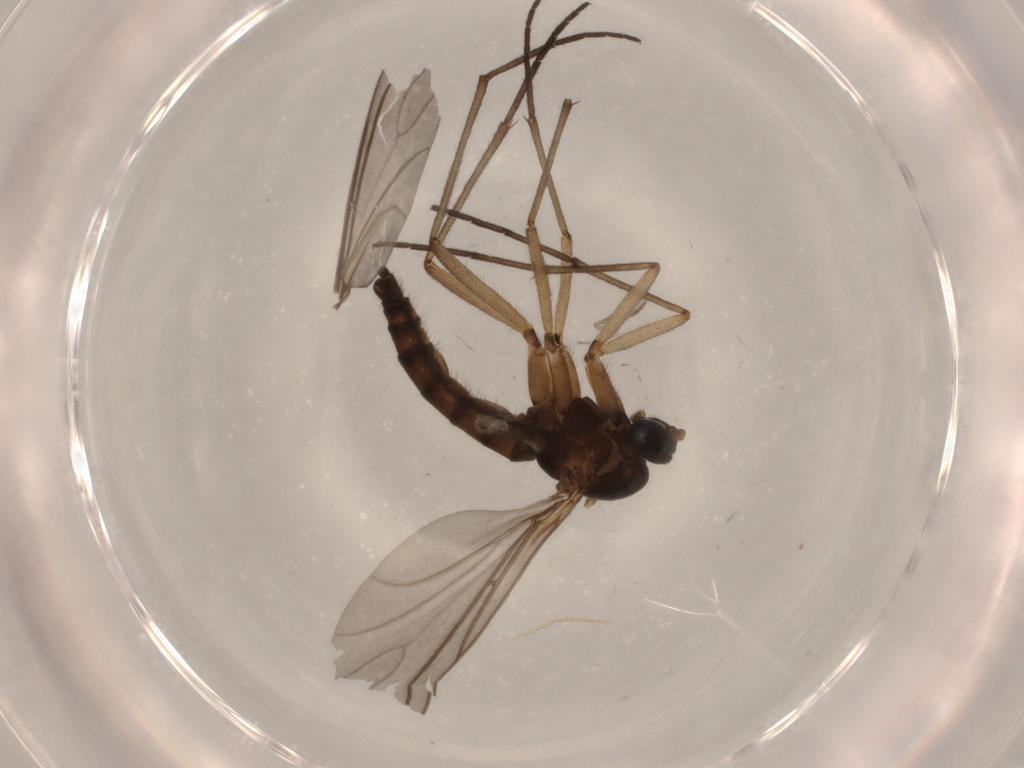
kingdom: Animalia
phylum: Arthropoda
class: Insecta
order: Diptera
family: Psychodidae
